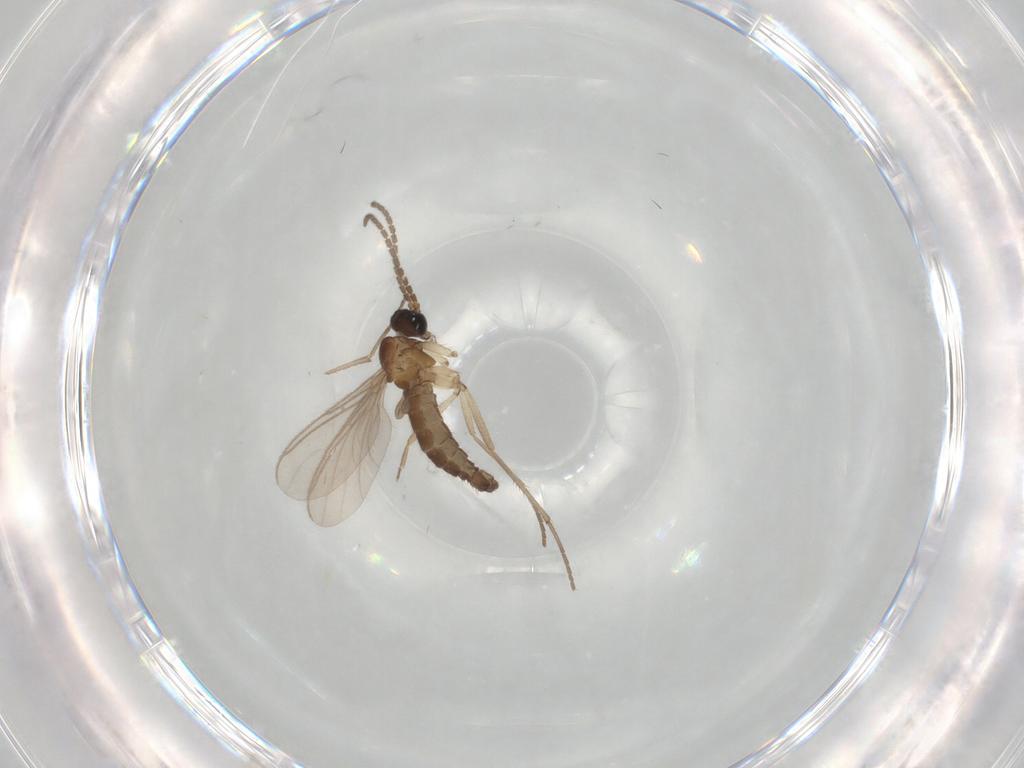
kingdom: Animalia
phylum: Arthropoda
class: Insecta
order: Diptera
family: Sciaridae
